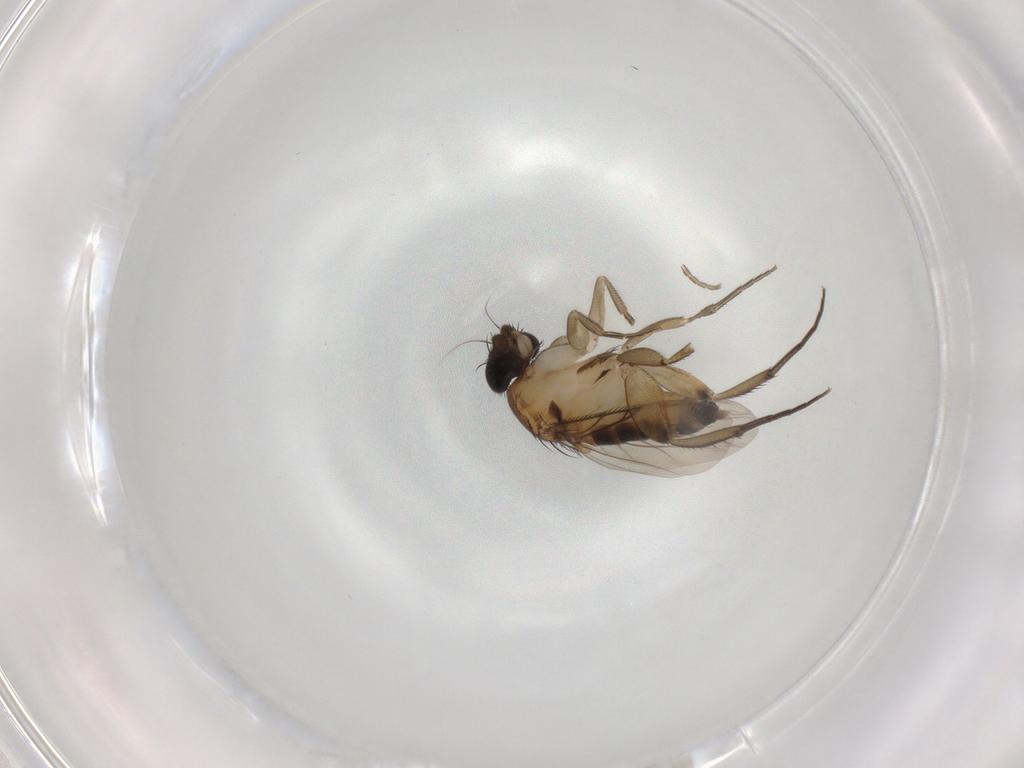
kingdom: Animalia
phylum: Arthropoda
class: Insecta
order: Diptera
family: Phoridae
